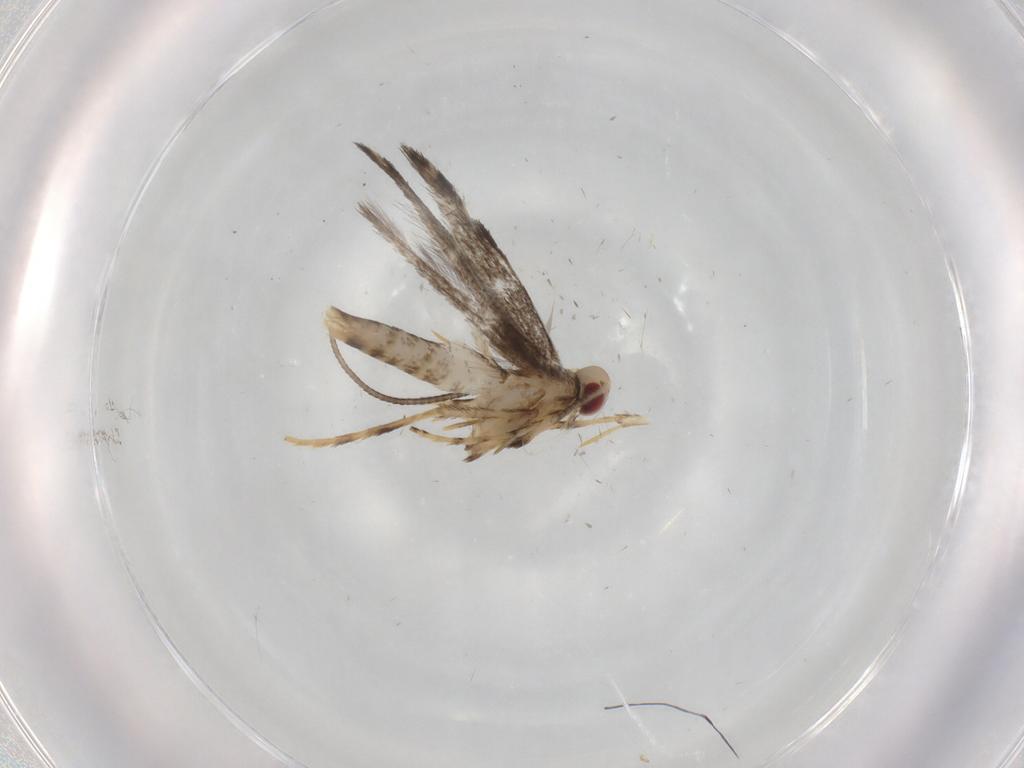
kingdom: Animalia
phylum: Arthropoda
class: Insecta
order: Lepidoptera
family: Gracillariidae
